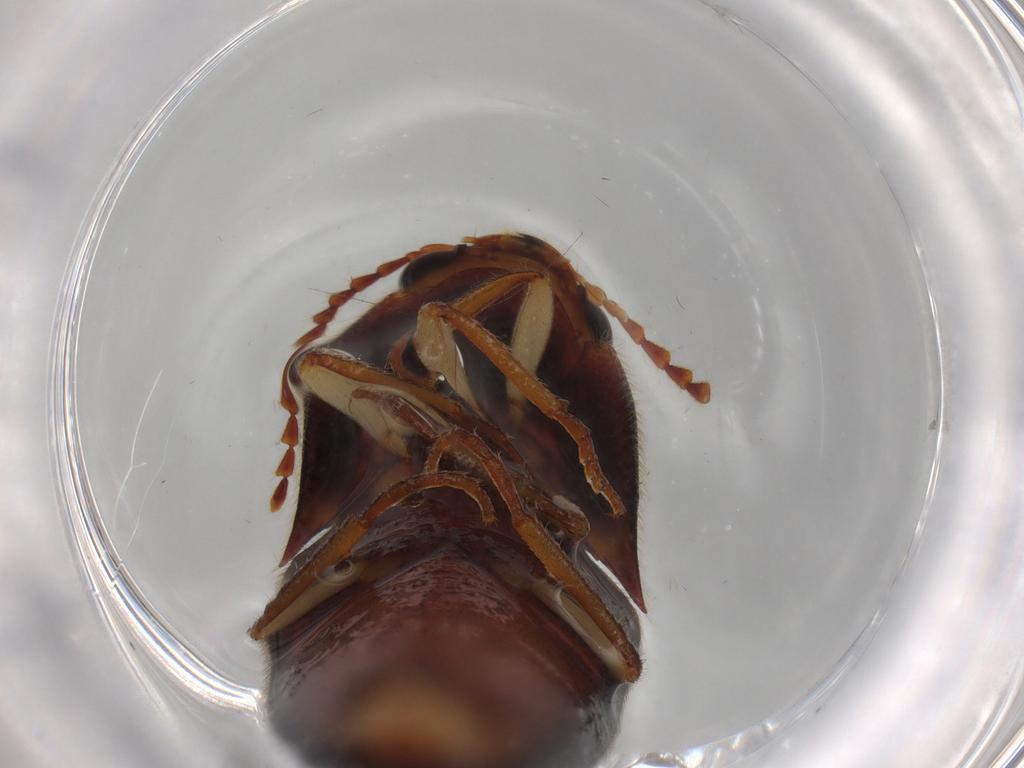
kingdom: Animalia
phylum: Arthropoda
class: Insecta
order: Coleoptera
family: Elateridae
